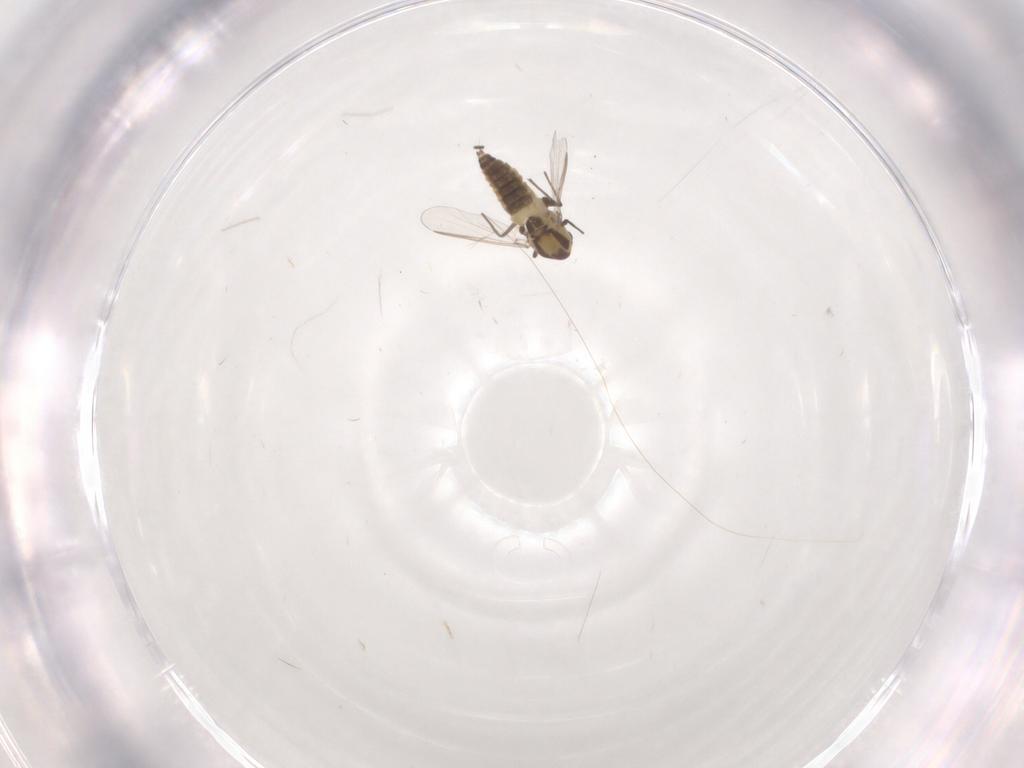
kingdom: Animalia
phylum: Arthropoda
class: Insecta
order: Diptera
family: Chironomidae
